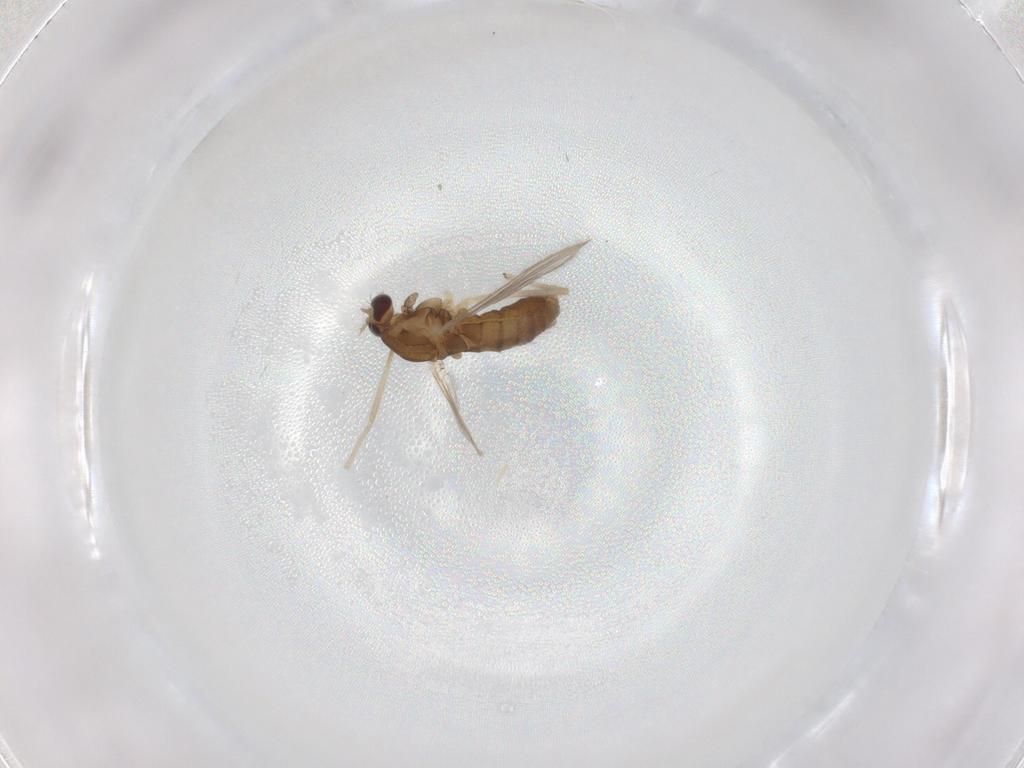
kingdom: Animalia
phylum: Arthropoda
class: Insecta
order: Diptera
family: Chironomidae
